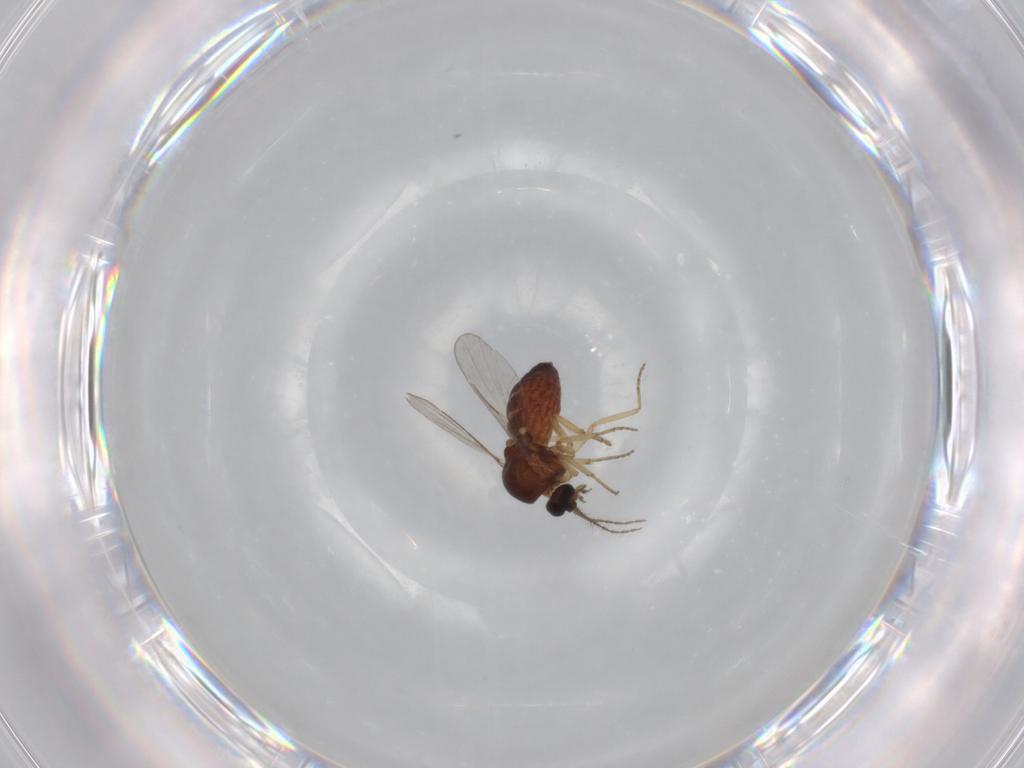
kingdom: Animalia
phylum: Arthropoda
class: Insecta
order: Diptera
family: Ceratopogonidae
